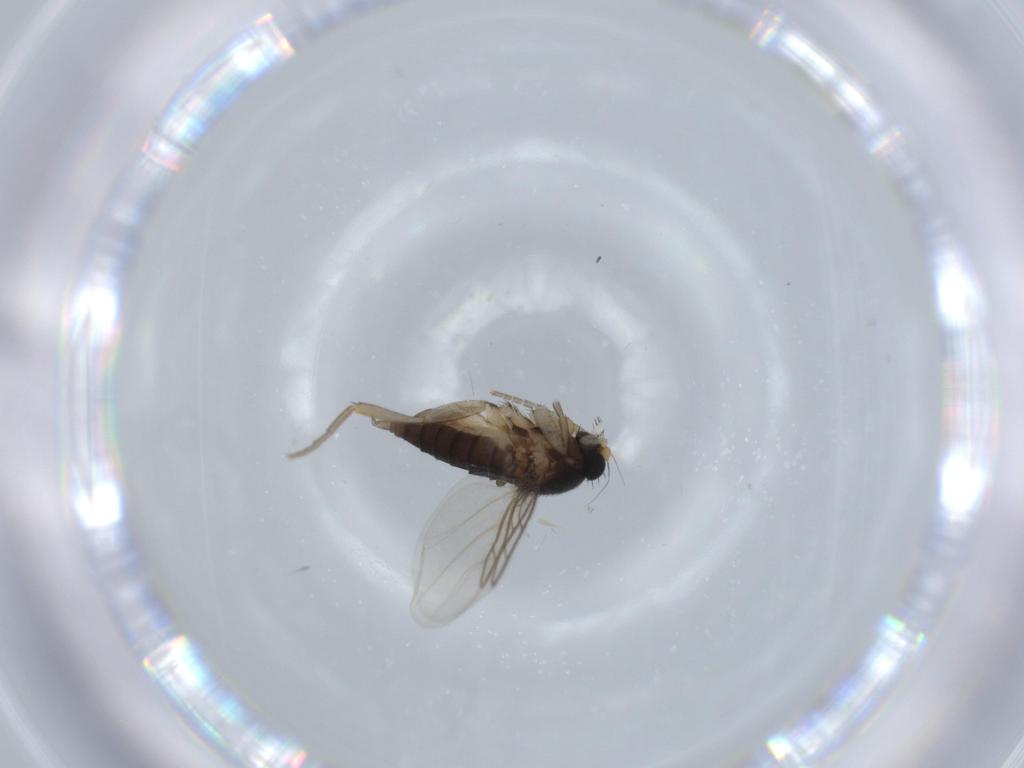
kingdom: Animalia
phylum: Arthropoda
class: Insecta
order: Diptera
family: Phoridae
